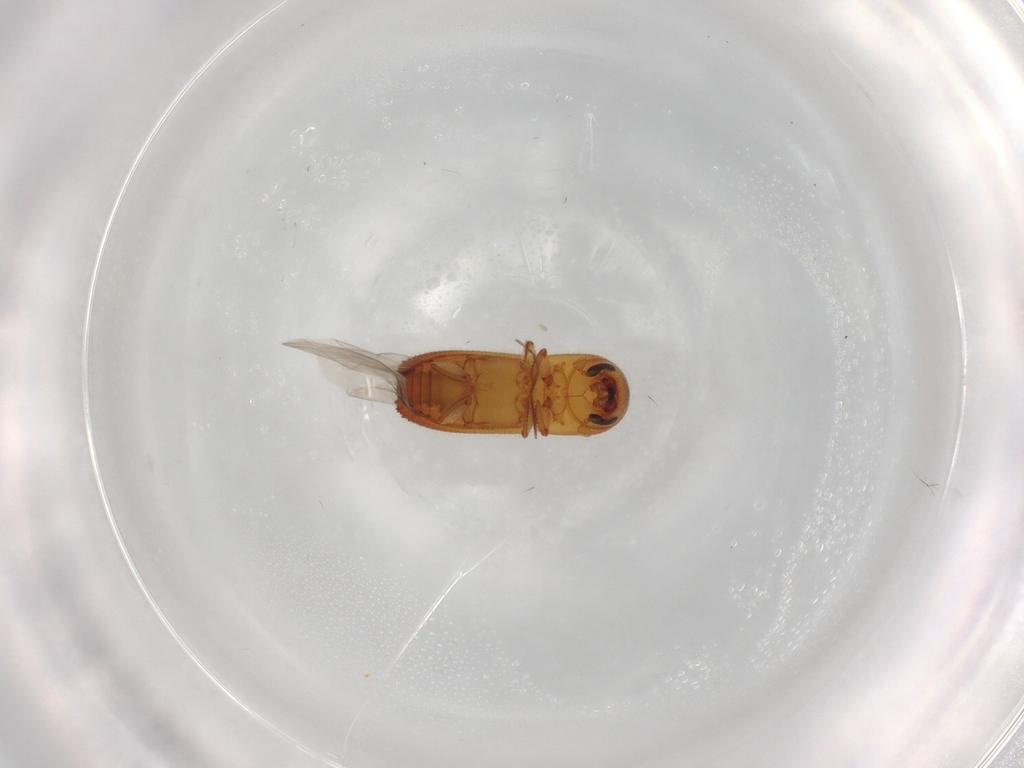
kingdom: Animalia
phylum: Arthropoda
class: Insecta
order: Coleoptera
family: Curculionidae
